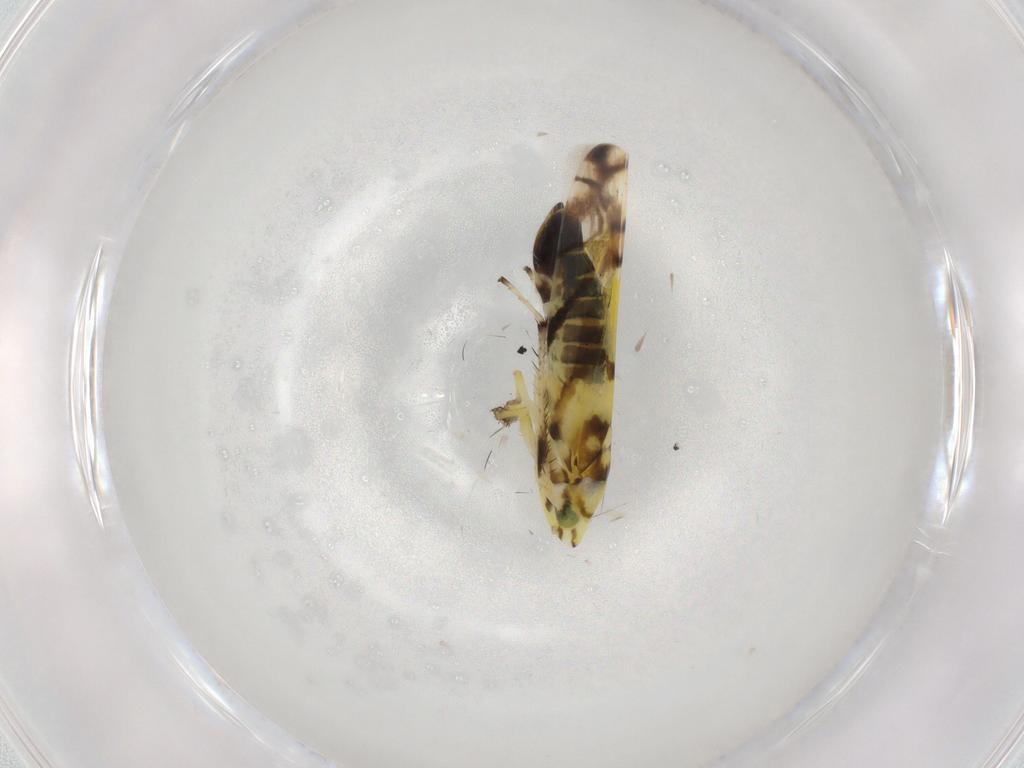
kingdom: Animalia
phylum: Arthropoda
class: Insecta
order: Hemiptera
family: Cicadellidae
